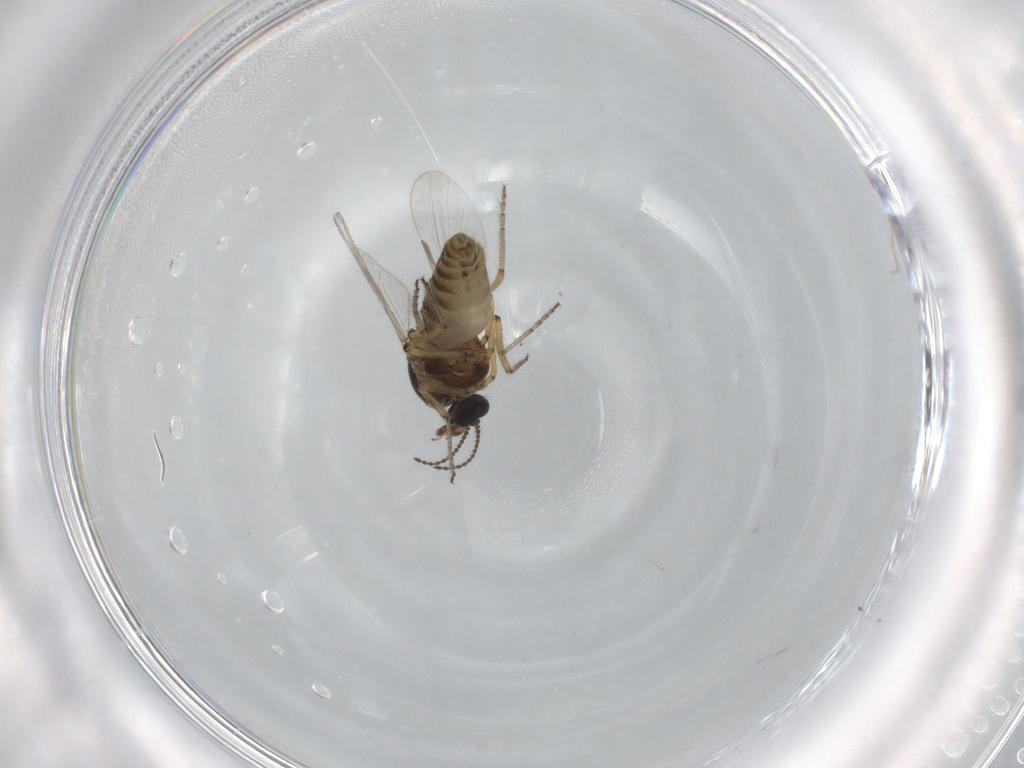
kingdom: Animalia
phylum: Arthropoda
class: Insecta
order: Diptera
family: Ceratopogonidae
